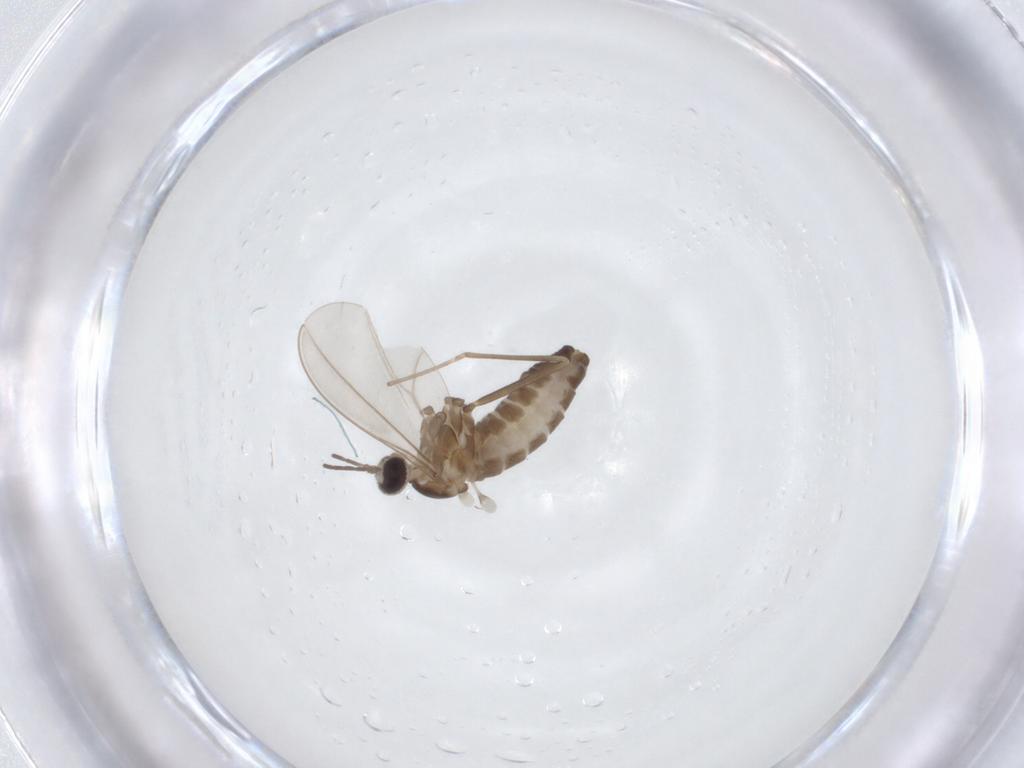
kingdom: Animalia
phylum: Arthropoda
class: Insecta
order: Diptera
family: Cecidomyiidae
